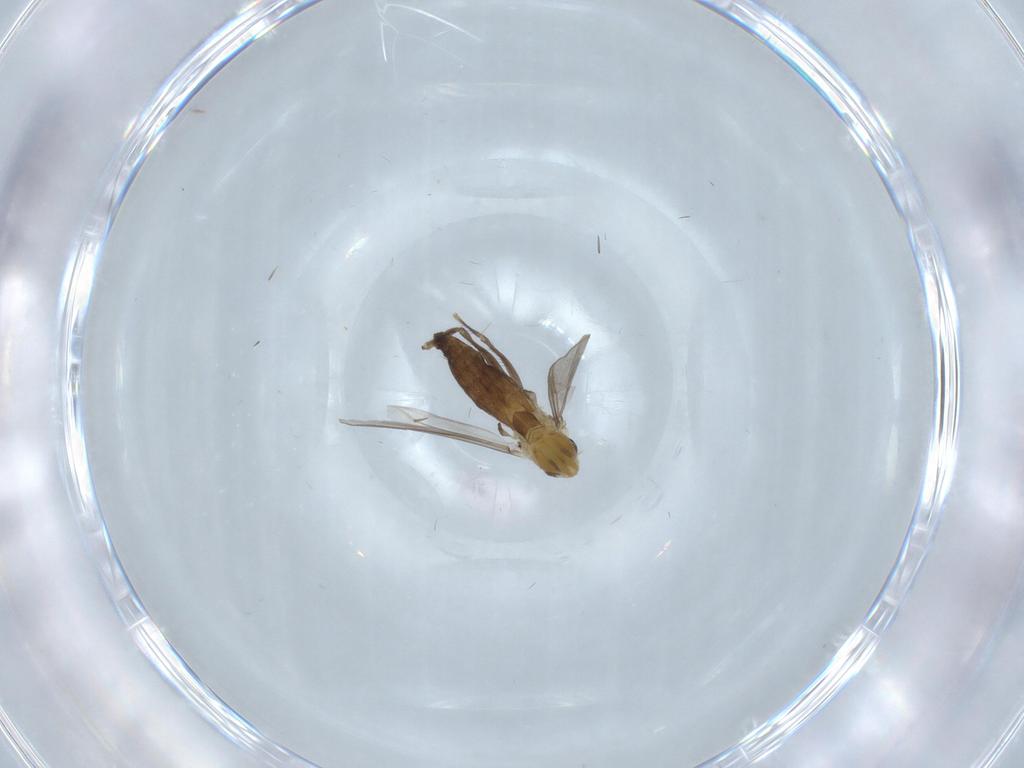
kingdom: Animalia
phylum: Arthropoda
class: Insecta
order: Diptera
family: Chironomidae
